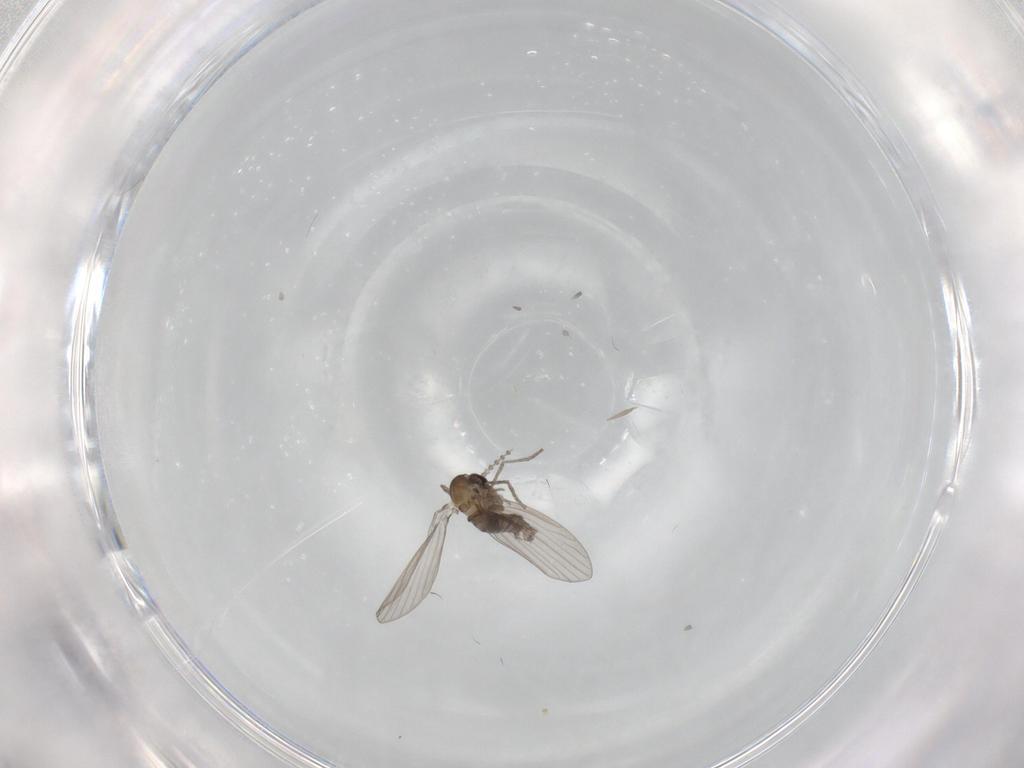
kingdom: Animalia
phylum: Arthropoda
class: Insecta
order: Diptera
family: Psychodidae
